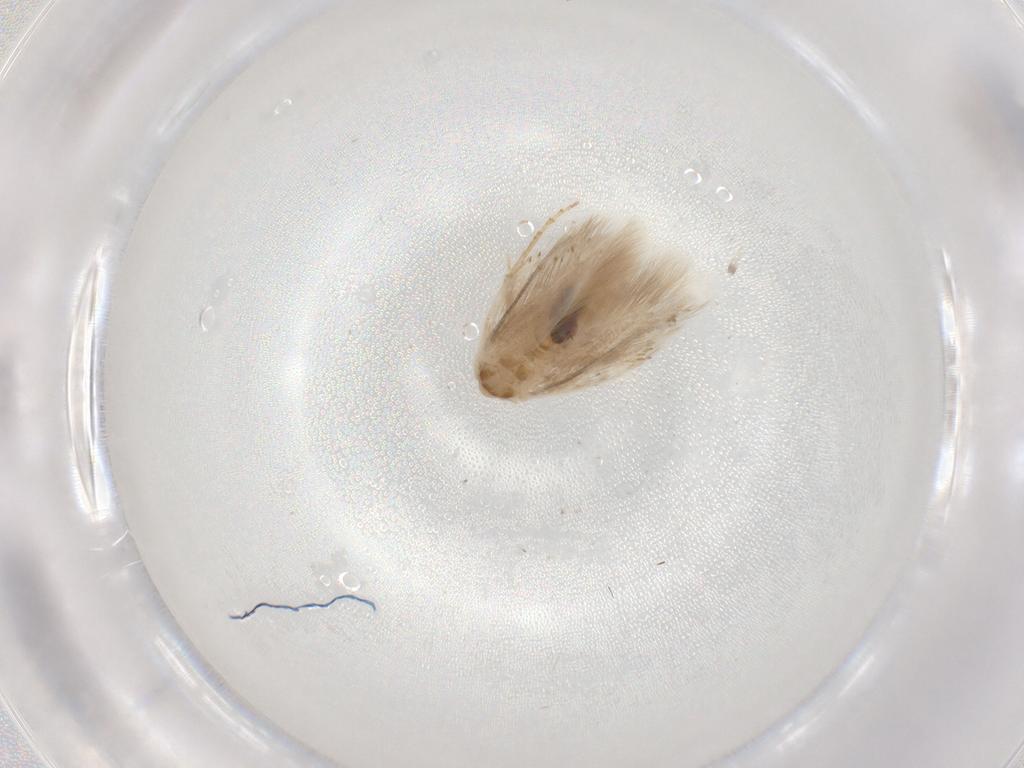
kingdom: Animalia
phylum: Arthropoda
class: Insecta
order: Lepidoptera
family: Bucculatricidae
